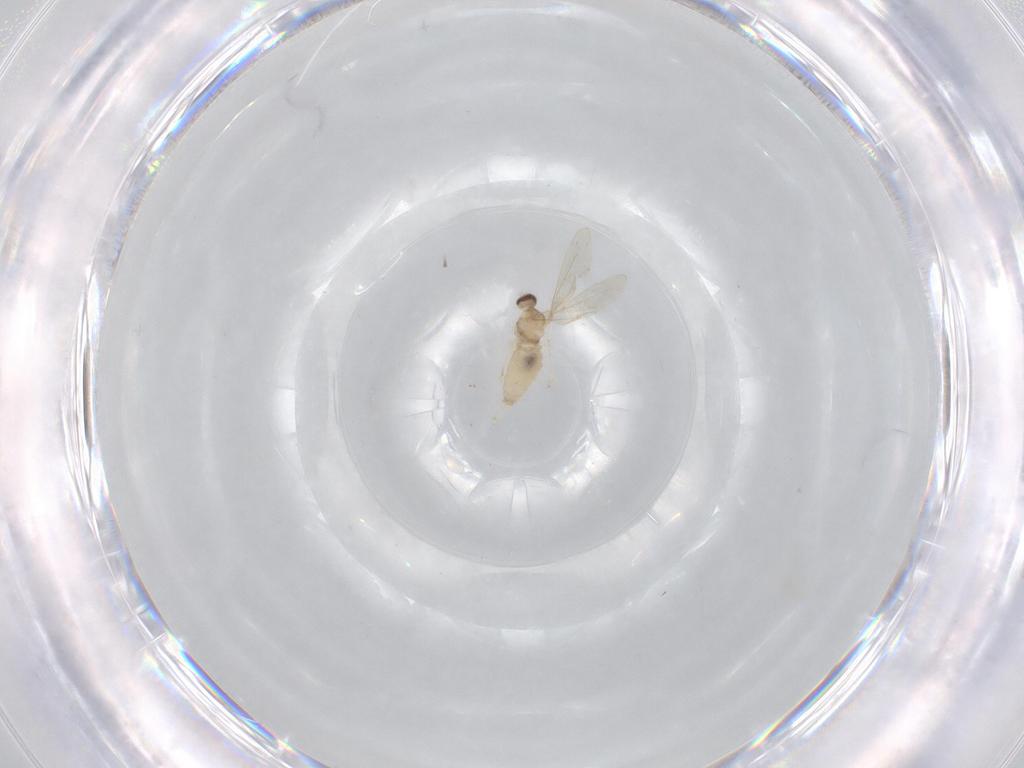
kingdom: Animalia
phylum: Arthropoda
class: Insecta
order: Diptera
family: Cecidomyiidae
